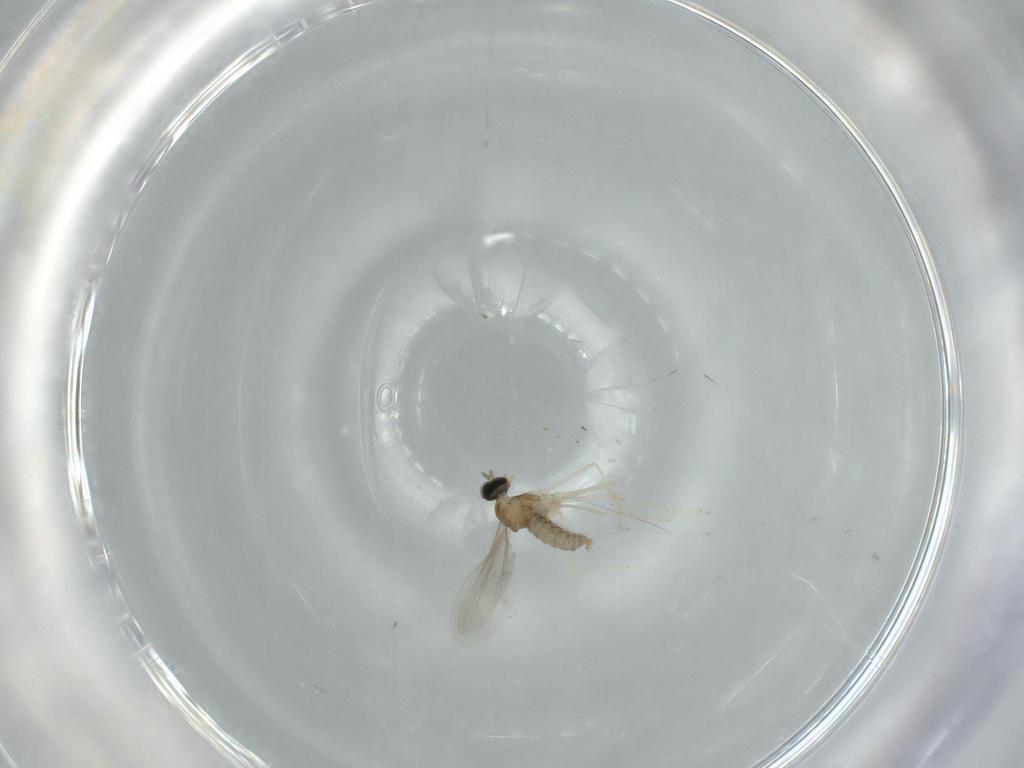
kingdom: Animalia
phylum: Arthropoda
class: Insecta
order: Diptera
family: Cecidomyiidae
